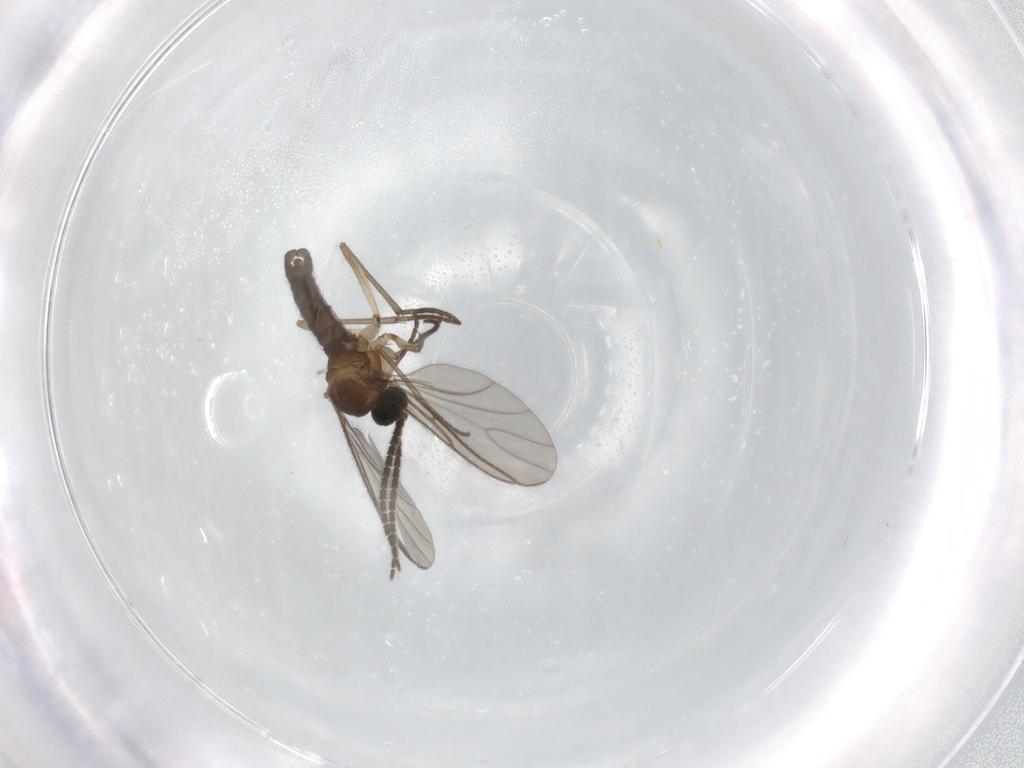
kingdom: Animalia
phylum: Arthropoda
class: Insecta
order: Diptera
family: Sciaridae
